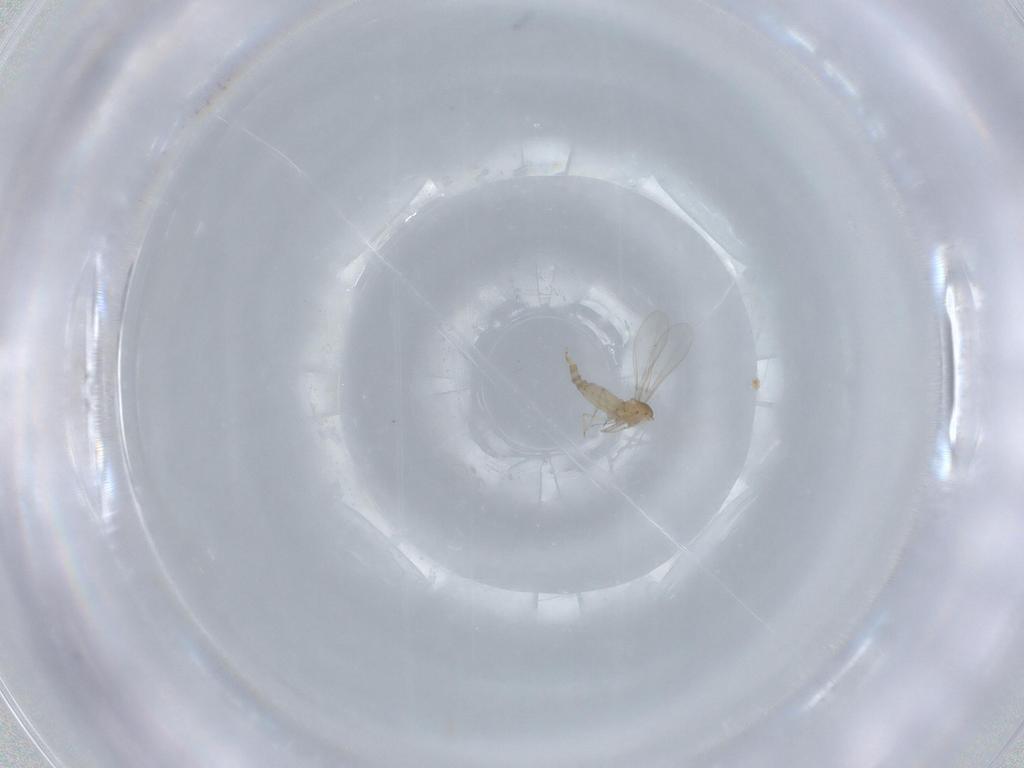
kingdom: Animalia
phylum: Arthropoda
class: Insecta
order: Diptera
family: Cecidomyiidae
